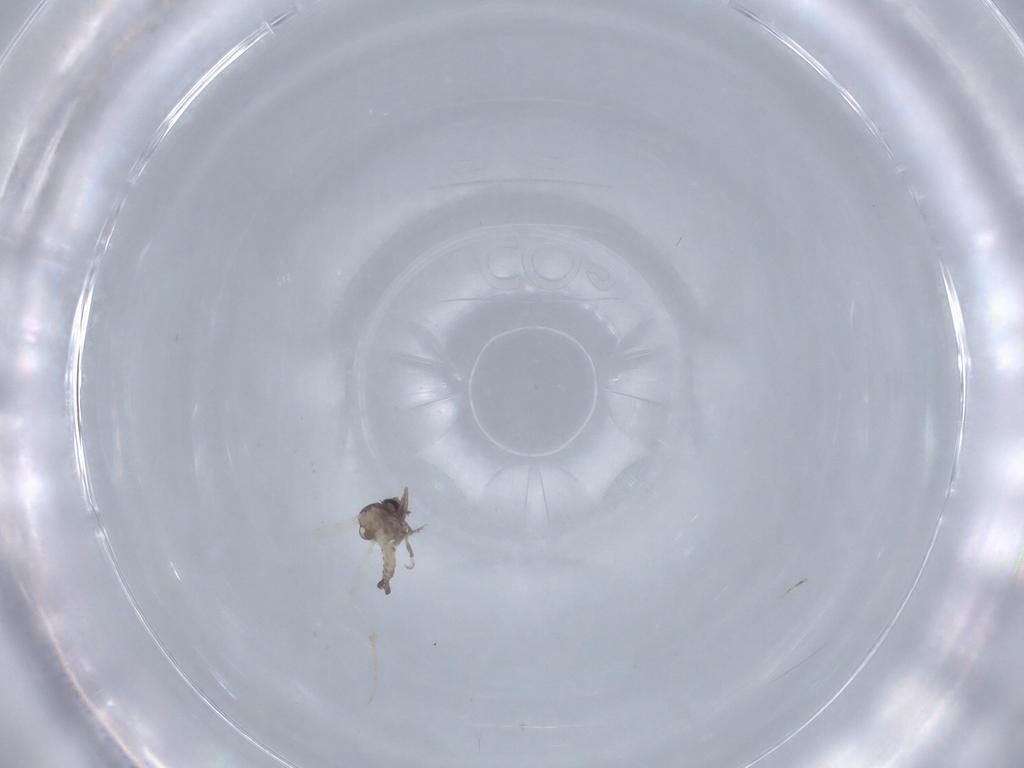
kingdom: Animalia
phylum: Arthropoda
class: Insecta
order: Diptera
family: Ceratopogonidae
